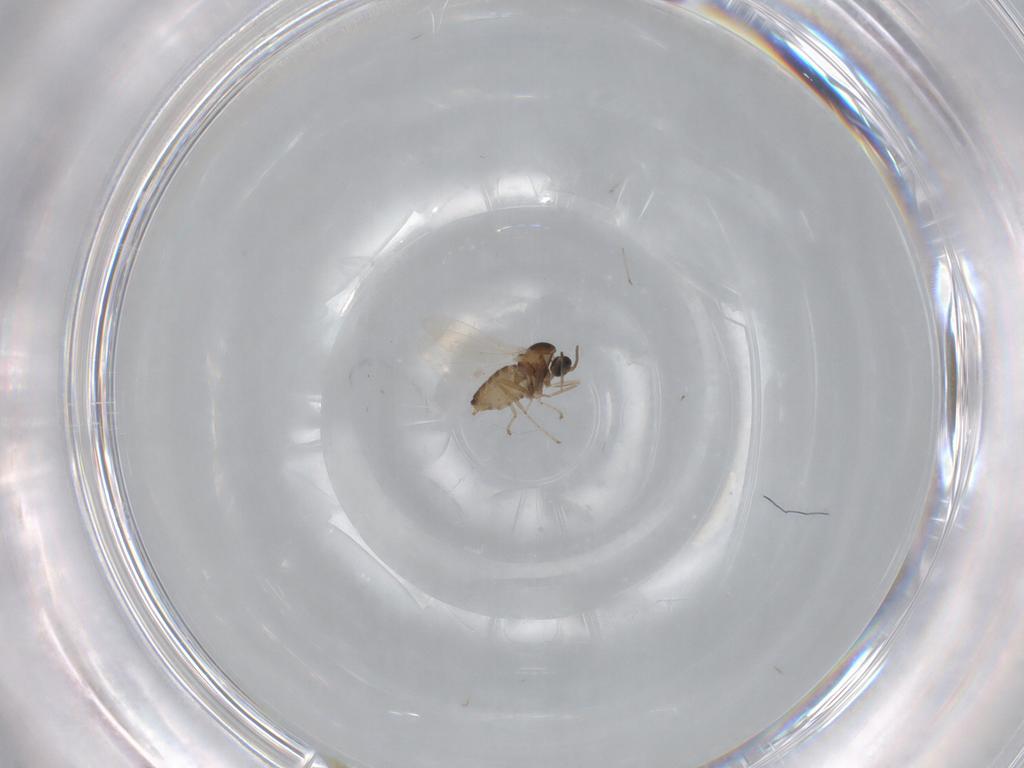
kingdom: Animalia
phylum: Arthropoda
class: Insecta
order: Diptera
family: Cecidomyiidae
